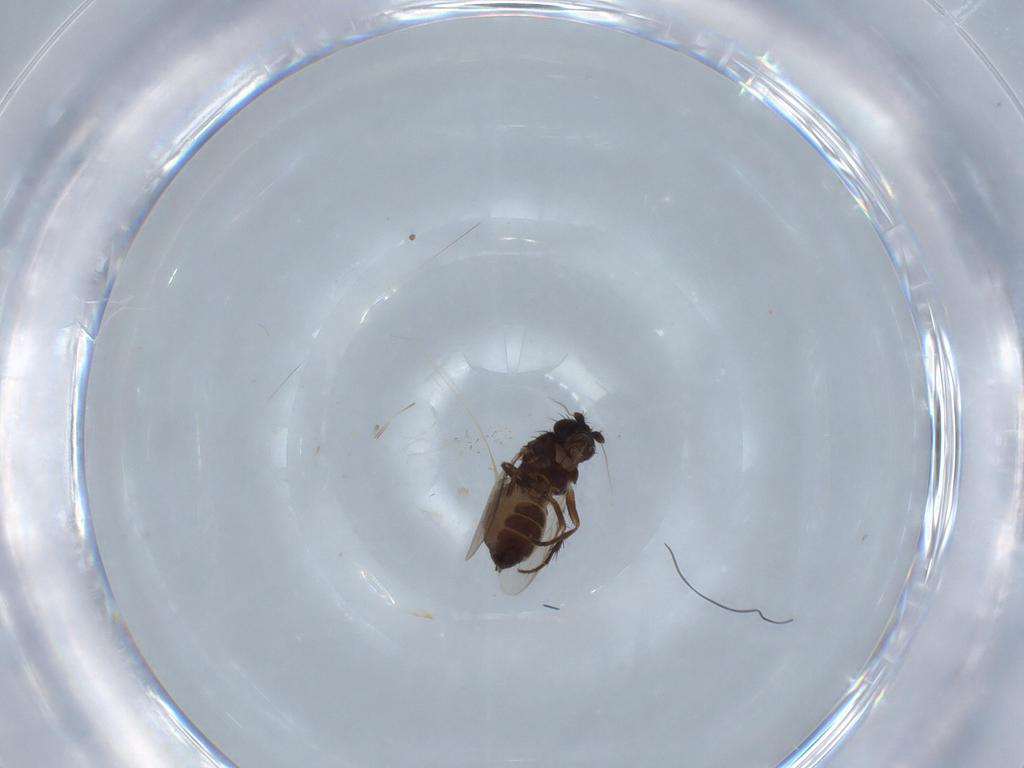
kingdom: Animalia
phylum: Arthropoda
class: Insecta
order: Diptera
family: Sphaeroceridae
